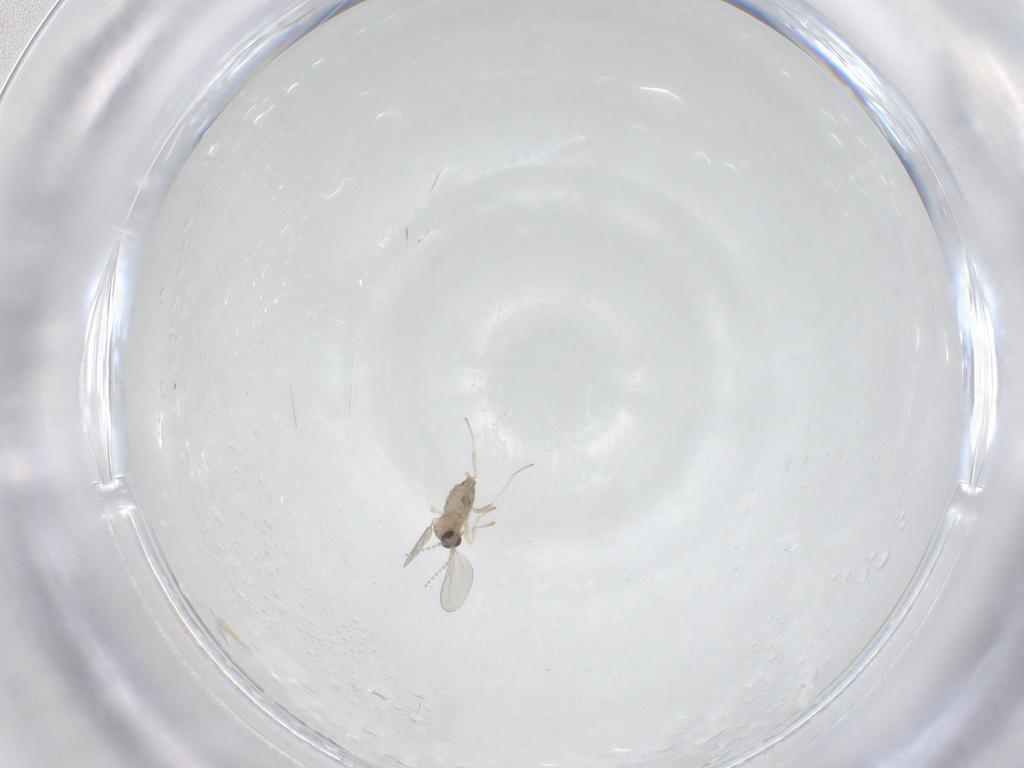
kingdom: Animalia
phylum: Arthropoda
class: Insecta
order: Diptera
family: Cecidomyiidae
